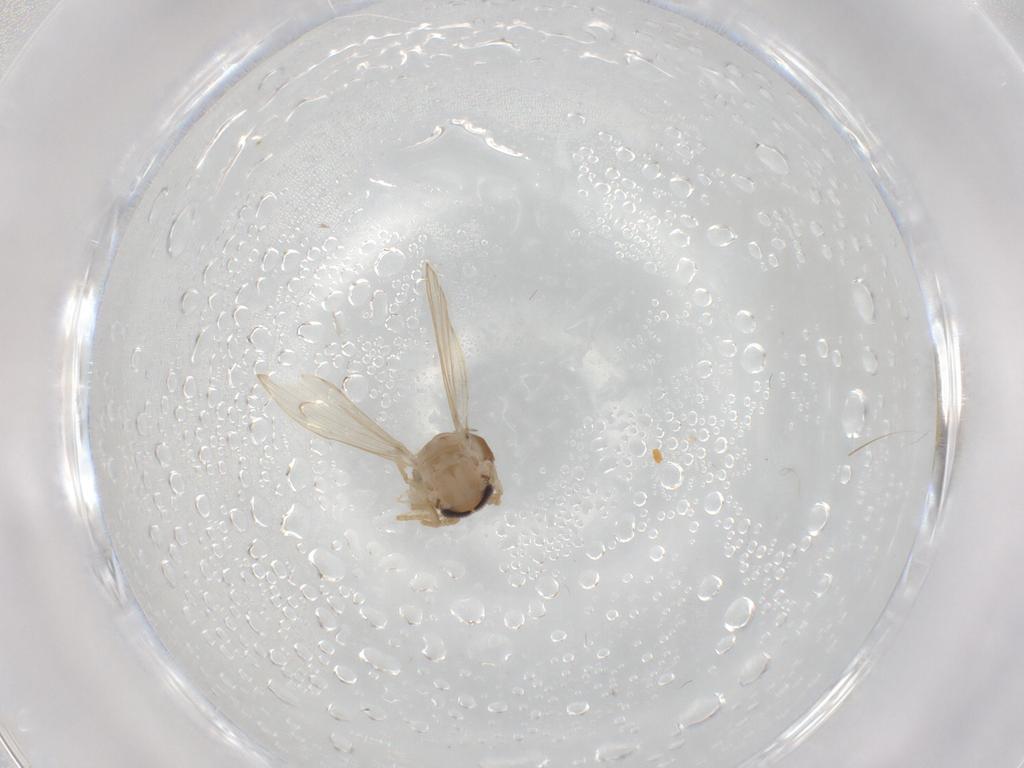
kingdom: Animalia
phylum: Arthropoda
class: Insecta
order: Diptera
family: Psychodidae
